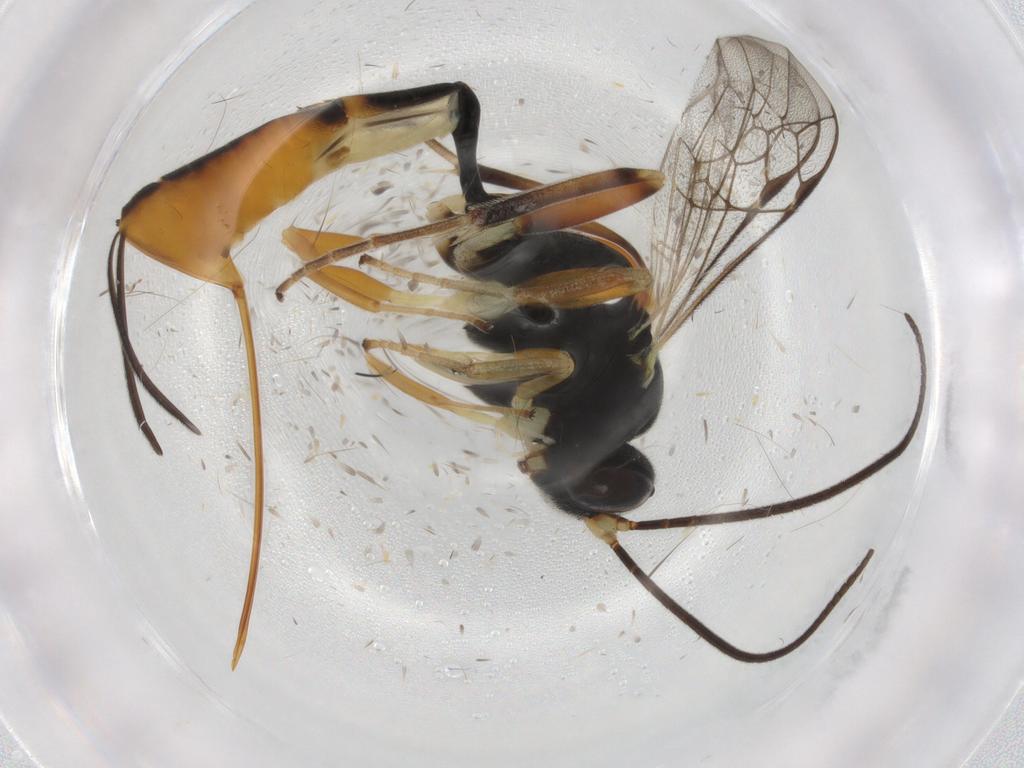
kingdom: Animalia
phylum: Arthropoda
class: Insecta
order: Hymenoptera
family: Ichneumonidae
